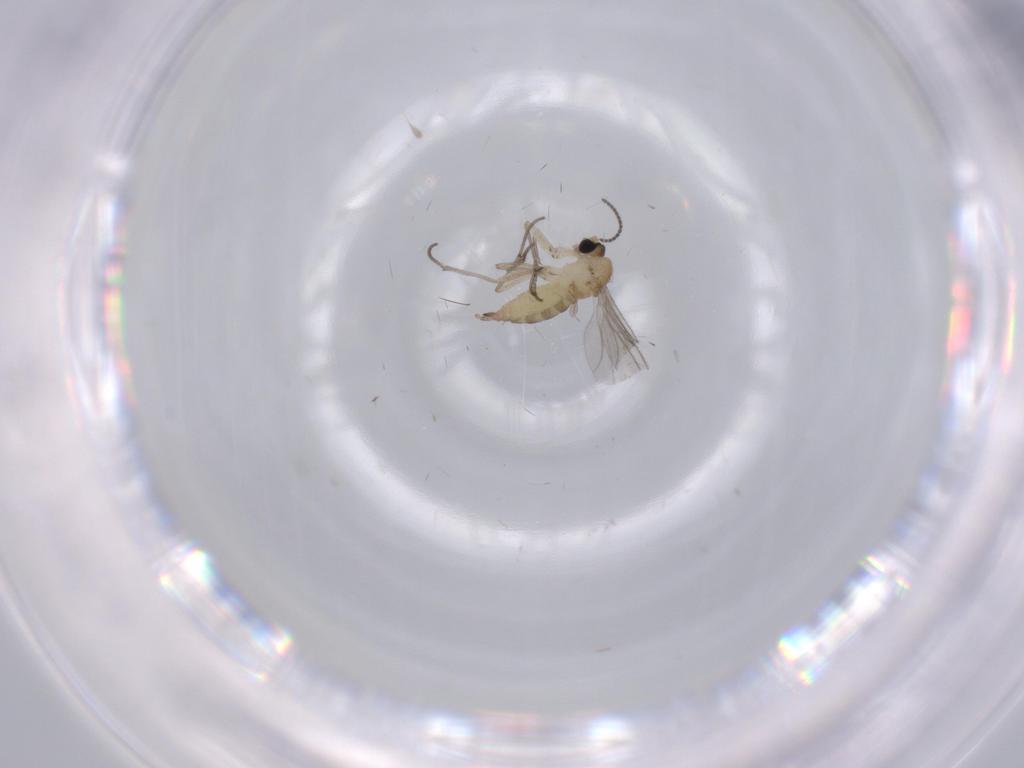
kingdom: Animalia
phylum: Arthropoda
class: Insecta
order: Diptera
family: Sciaridae
